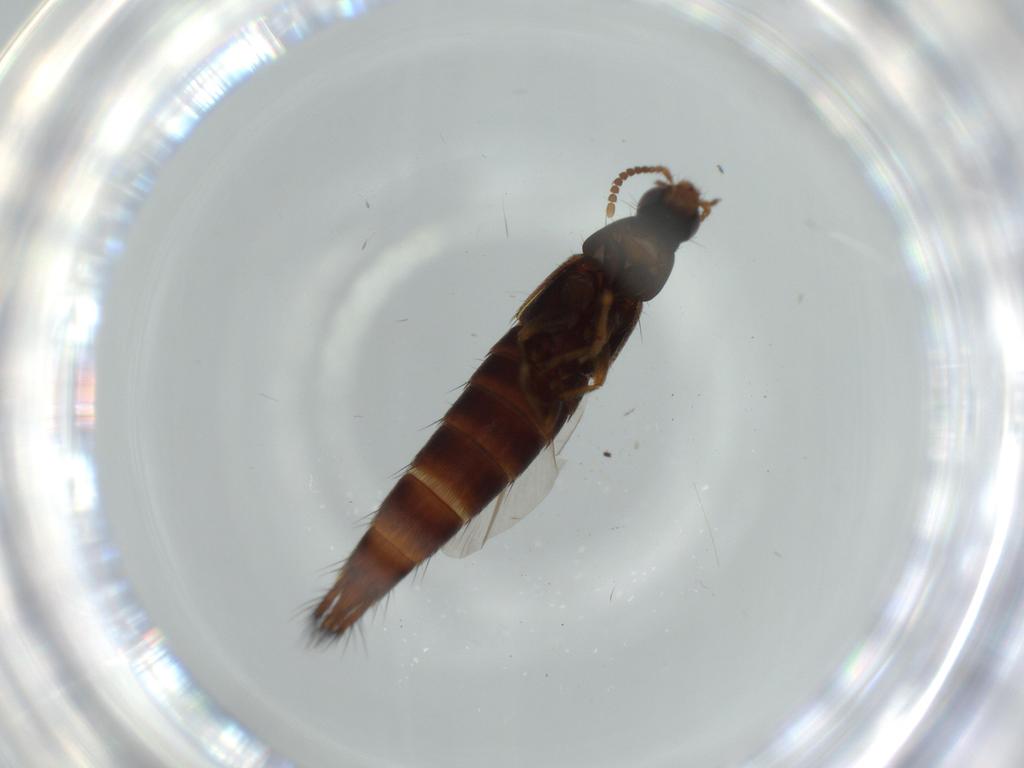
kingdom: Animalia
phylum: Arthropoda
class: Insecta
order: Coleoptera
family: Staphylinidae
